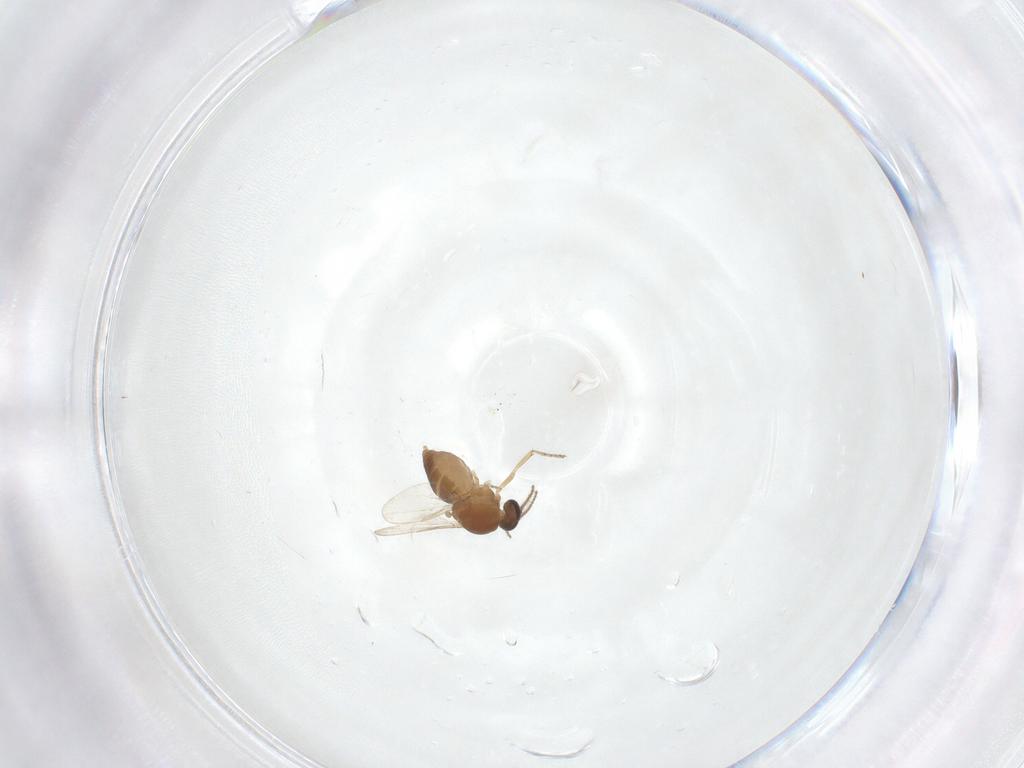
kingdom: Animalia
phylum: Arthropoda
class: Insecta
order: Diptera
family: Ceratopogonidae
